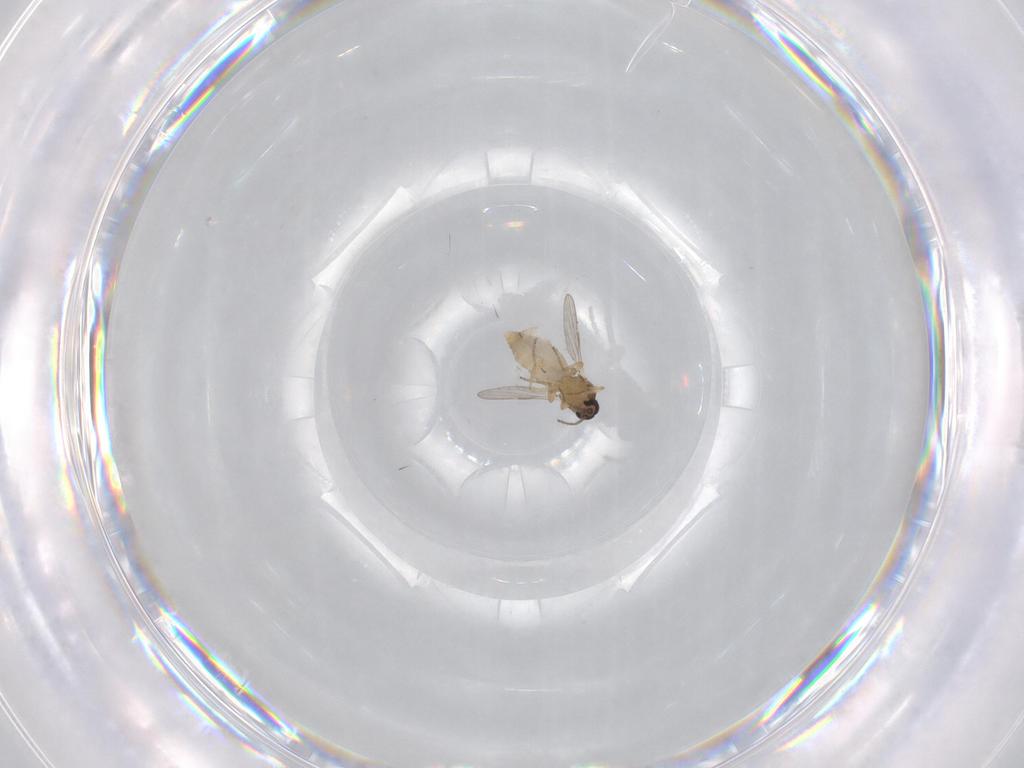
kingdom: Animalia
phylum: Arthropoda
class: Insecta
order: Diptera
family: Ceratopogonidae
